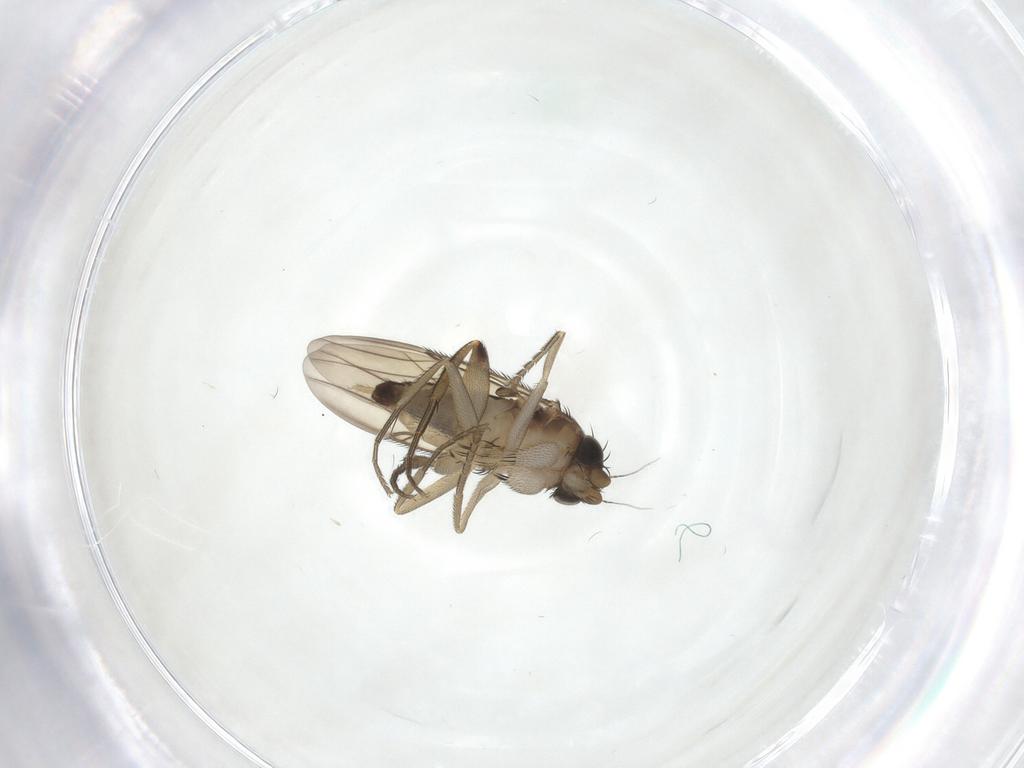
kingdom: Animalia
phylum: Arthropoda
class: Insecta
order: Diptera
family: Phoridae
